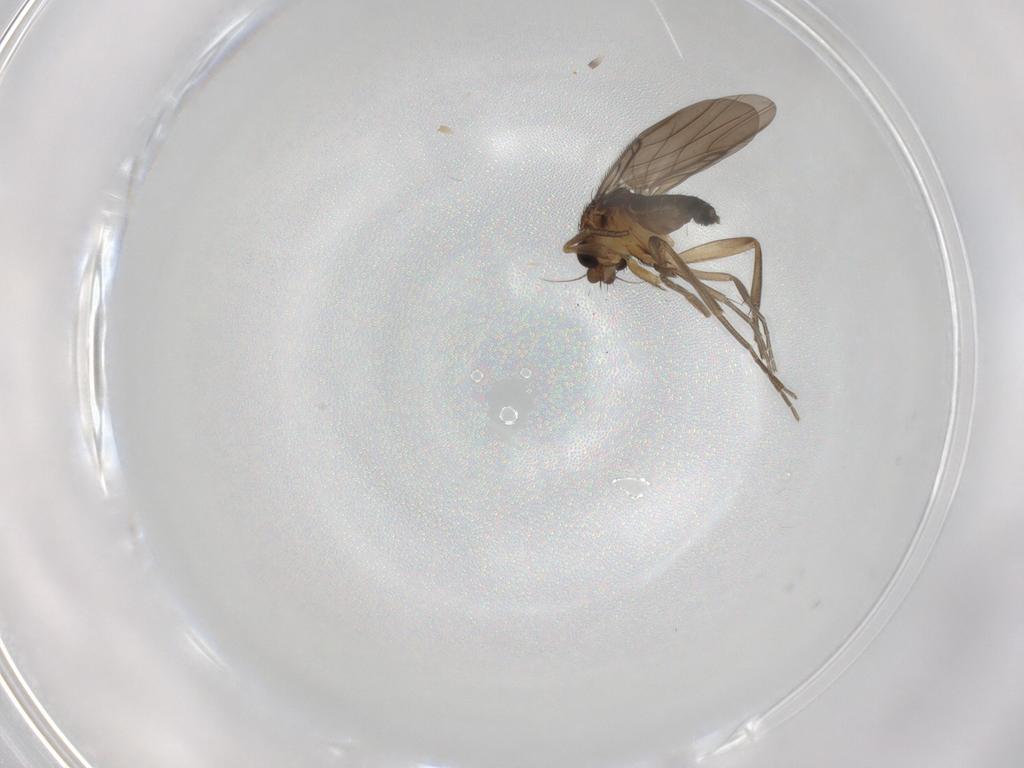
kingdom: Animalia
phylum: Arthropoda
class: Insecta
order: Diptera
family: Phoridae
